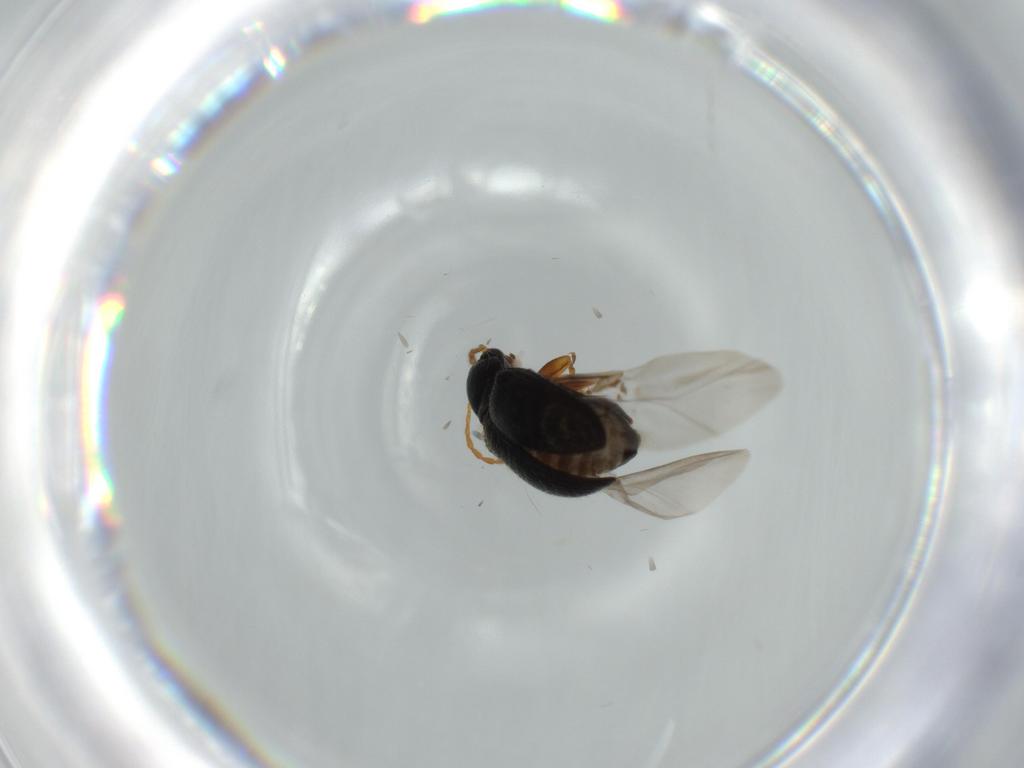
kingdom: Animalia
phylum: Arthropoda
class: Insecta
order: Coleoptera
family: Chrysomelidae
